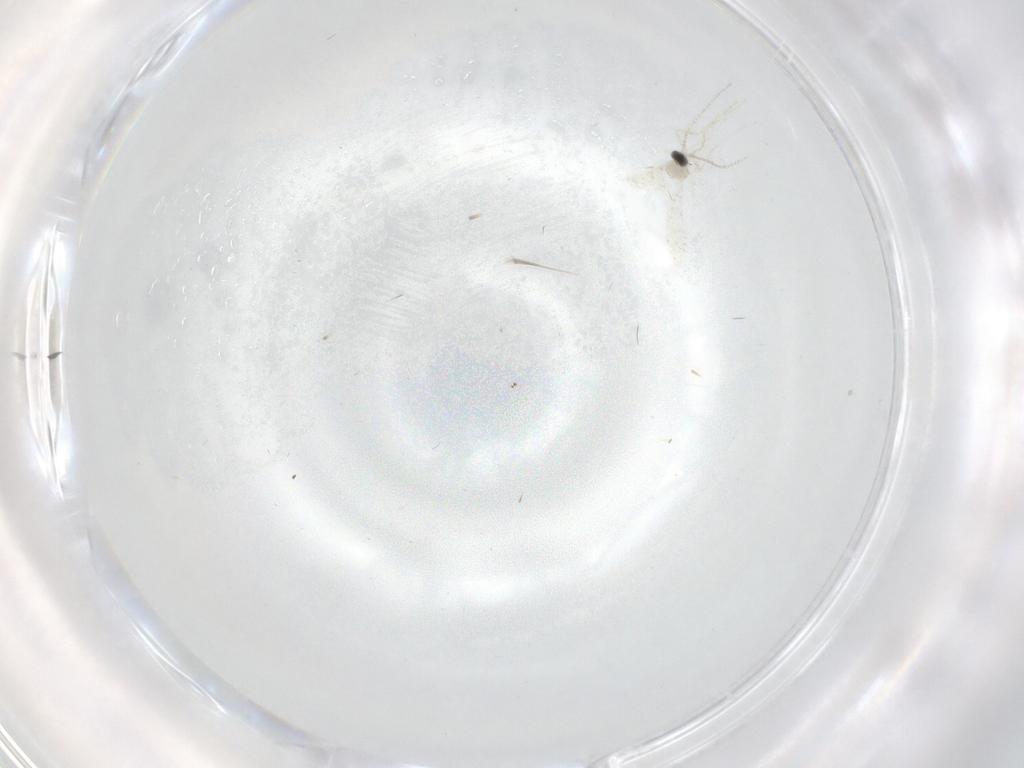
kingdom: Animalia
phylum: Arthropoda
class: Insecta
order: Diptera
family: Cecidomyiidae
